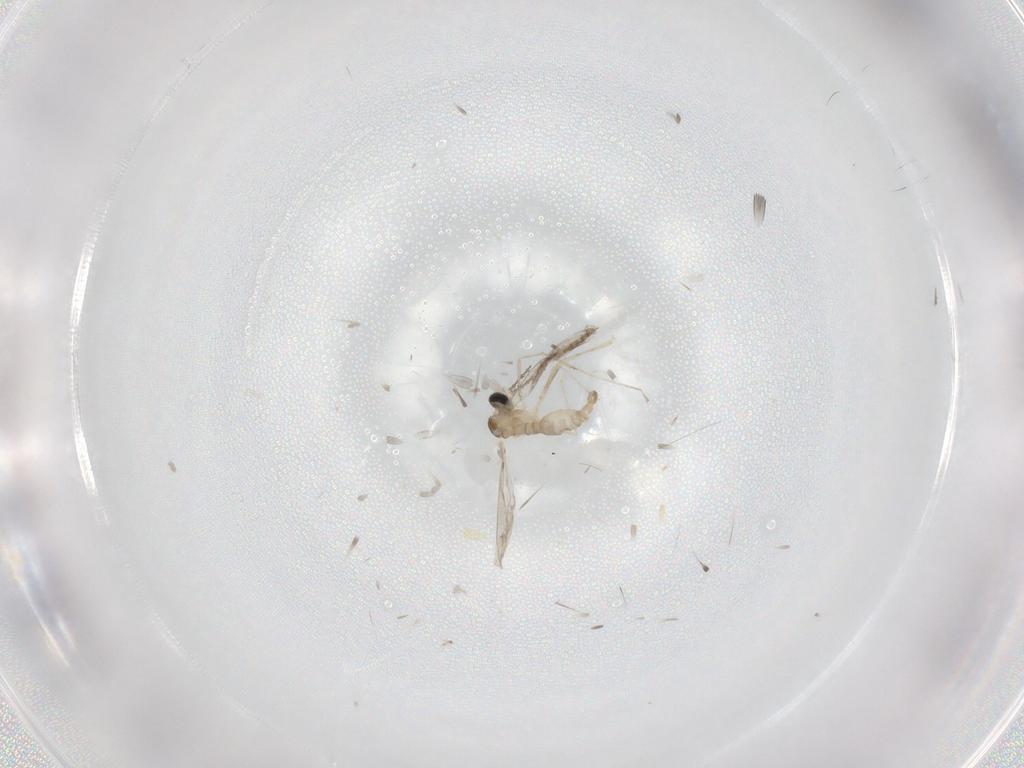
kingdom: Animalia
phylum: Arthropoda
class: Insecta
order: Diptera
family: Cecidomyiidae
